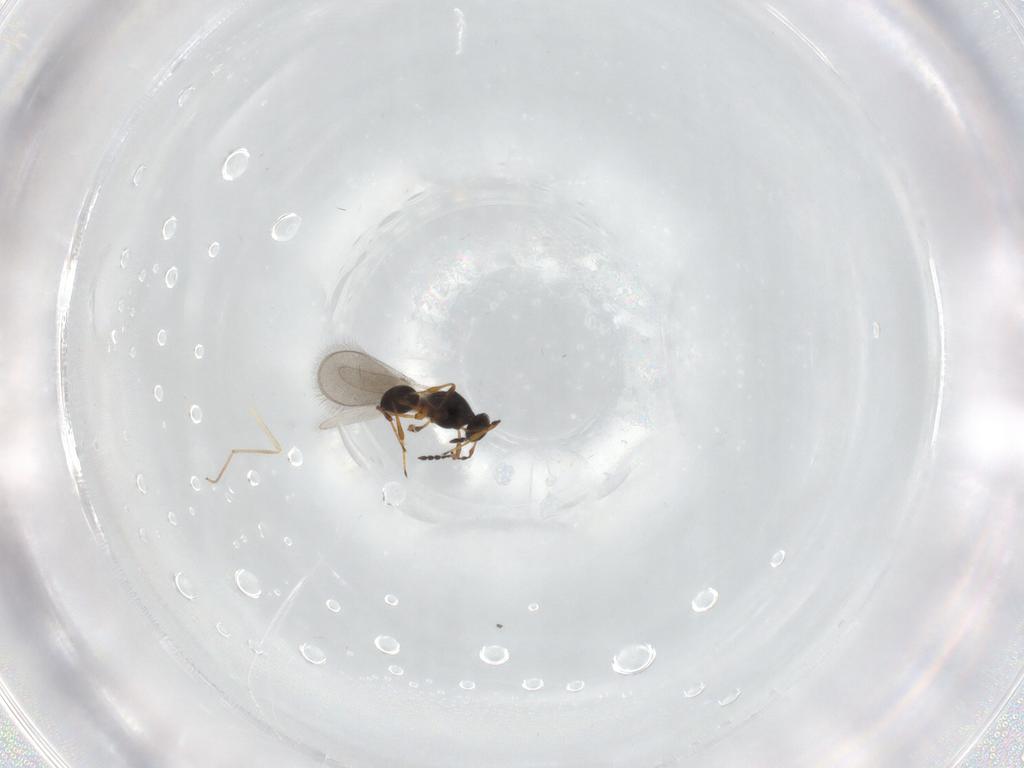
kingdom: Animalia
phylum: Arthropoda
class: Insecta
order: Hymenoptera
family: Platygastridae
